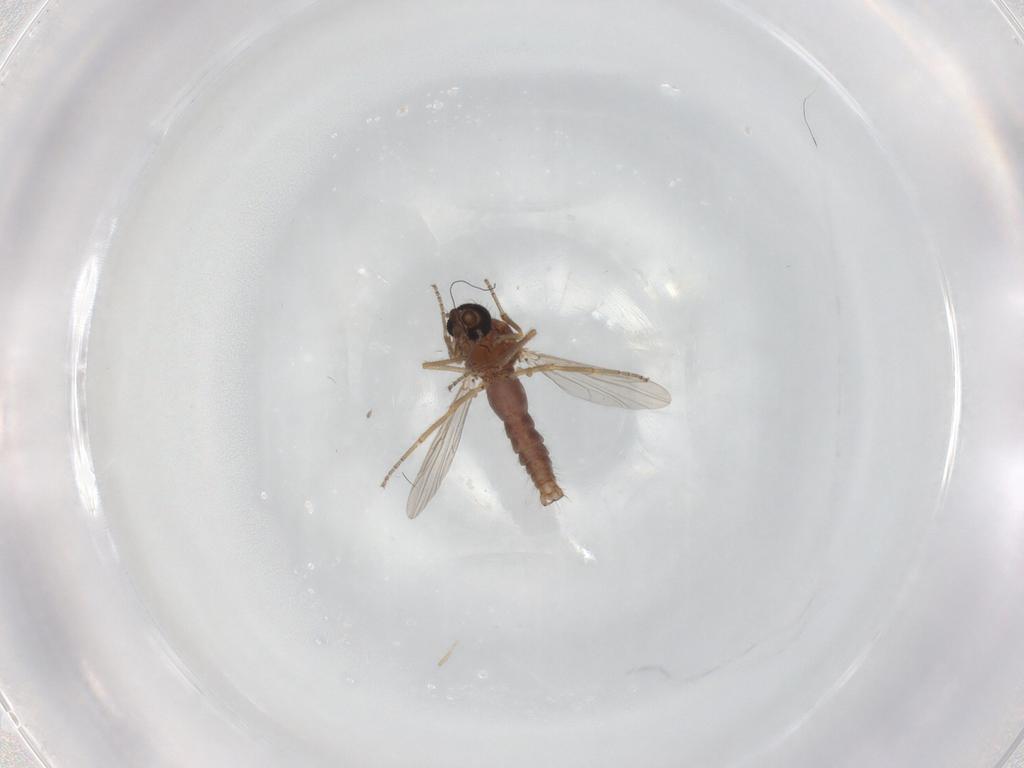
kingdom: Animalia
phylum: Arthropoda
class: Insecta
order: Diptera
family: Ceratopogonidae
